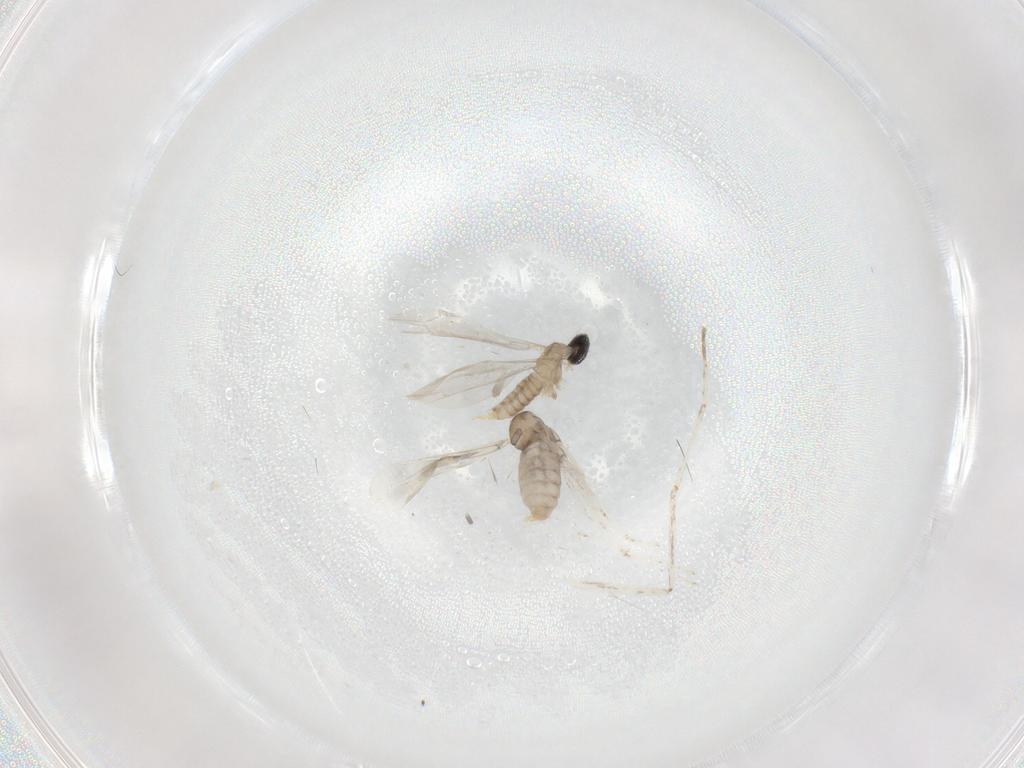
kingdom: Animalia
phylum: Arthropoda
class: Insecta
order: Diptera
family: Cecidomyiidae
